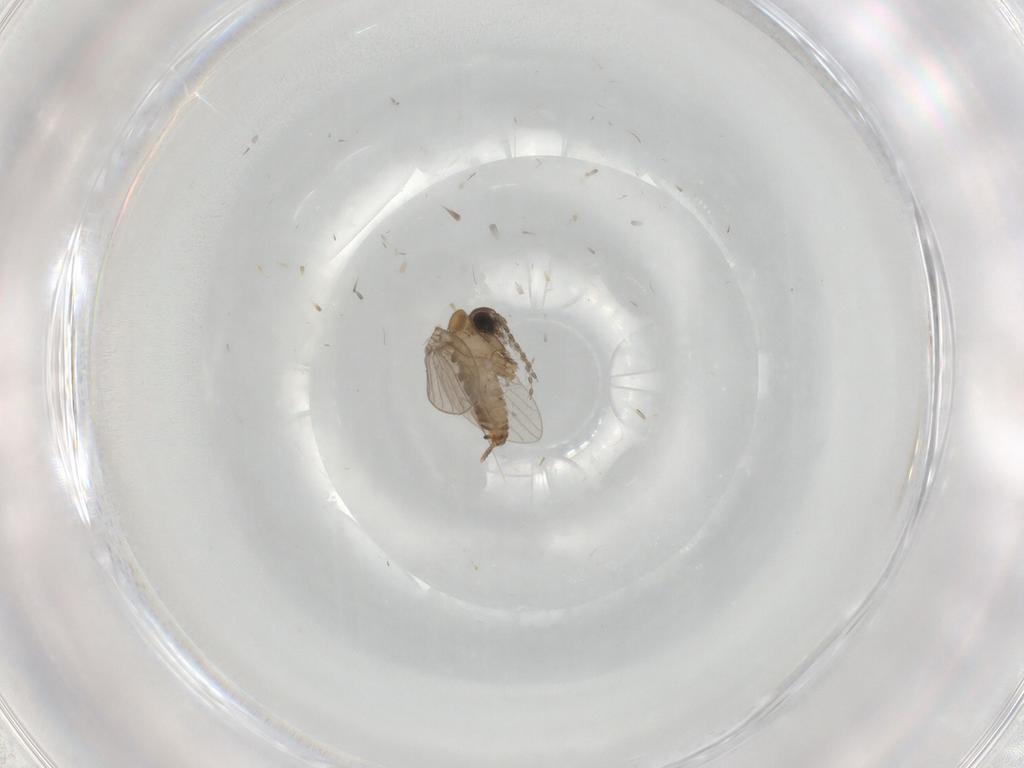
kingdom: Animalia
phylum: Arthropoda
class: Insecta
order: Diptera
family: Psychodidae
